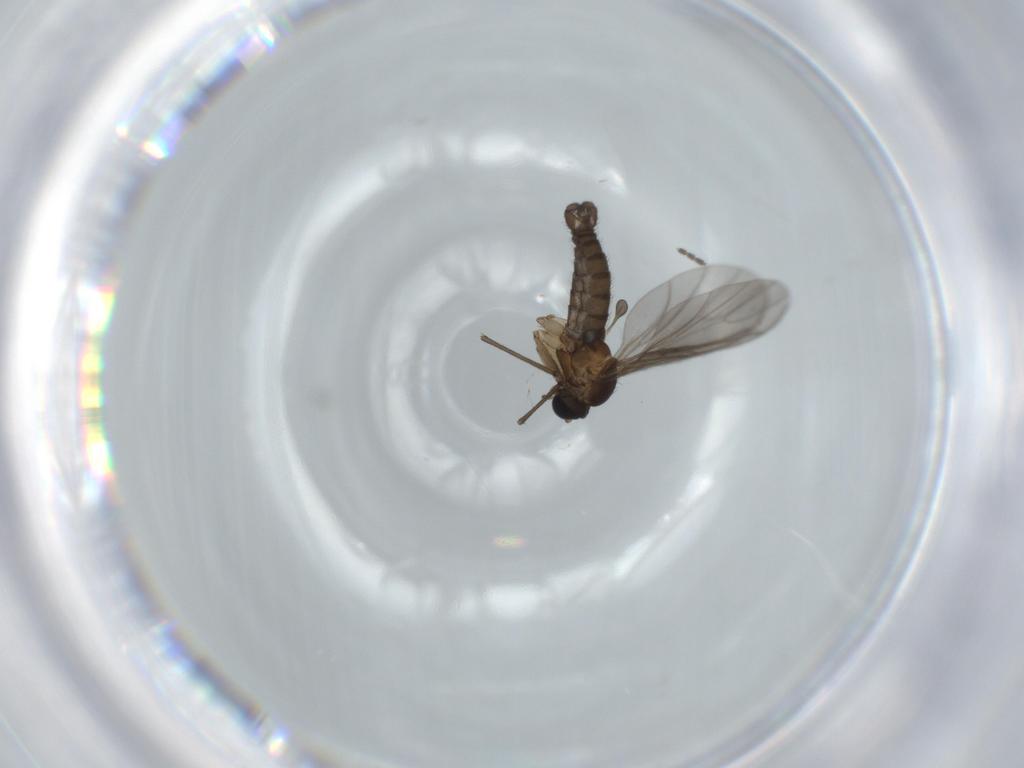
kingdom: Animalia
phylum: Arthropoda
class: Insecta
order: Diptera
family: Sciaridae
